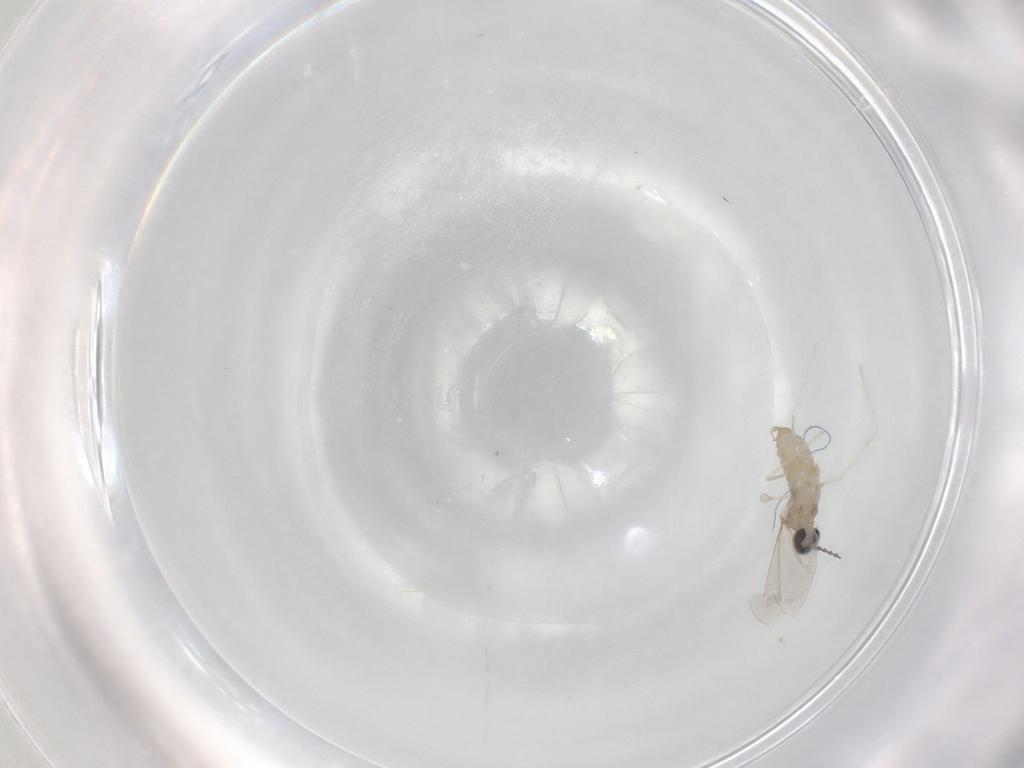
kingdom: Animalia
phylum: Arthropoda
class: Insecta
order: Diptera
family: Cecidomyiidae
